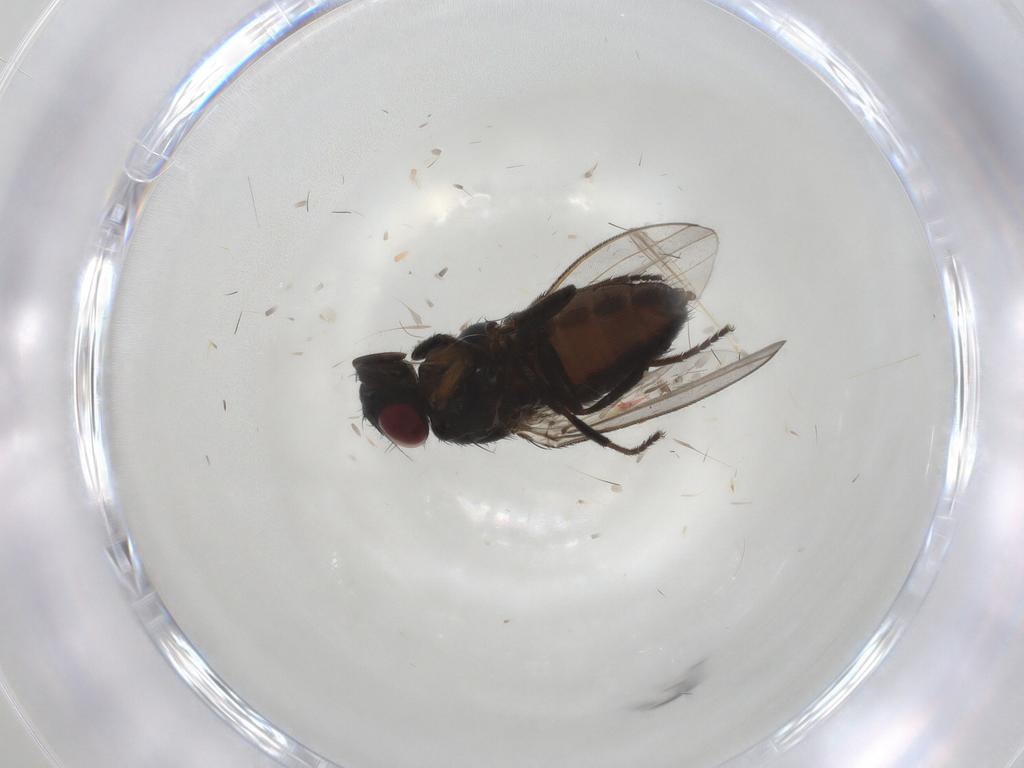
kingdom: Animalia
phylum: Arthropoda
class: Insecta
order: Diptera
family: Milichiidae
